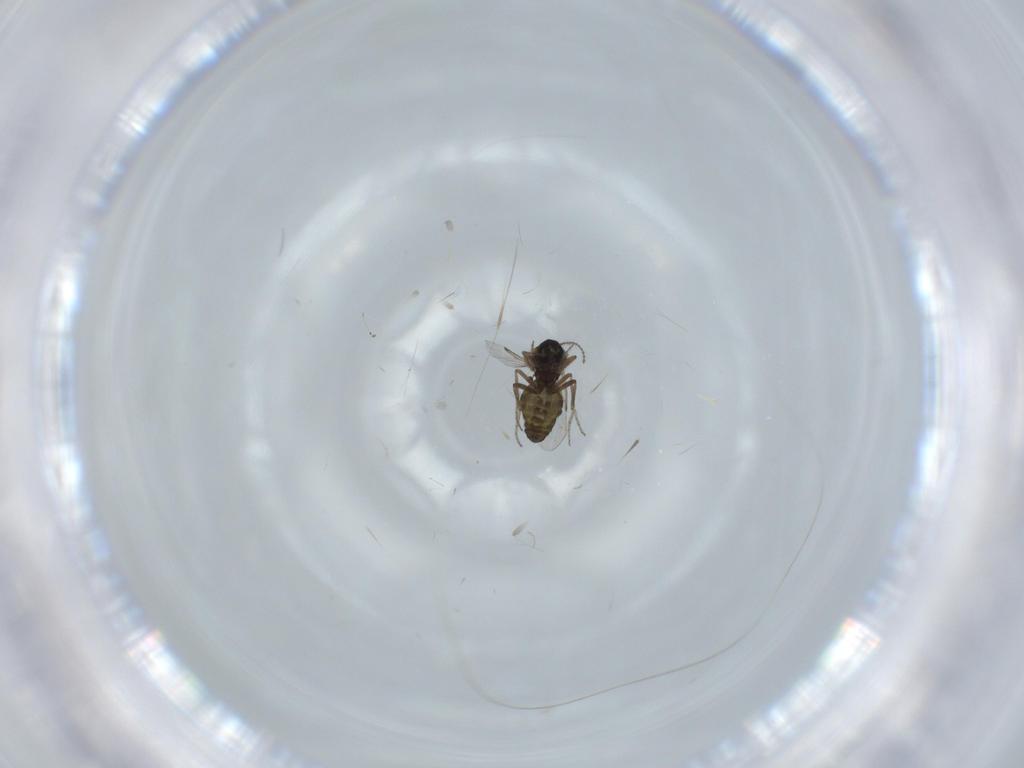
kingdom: Animalia
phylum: Arthropoda
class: Insecta
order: Diptera
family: Ceratopogonidae
